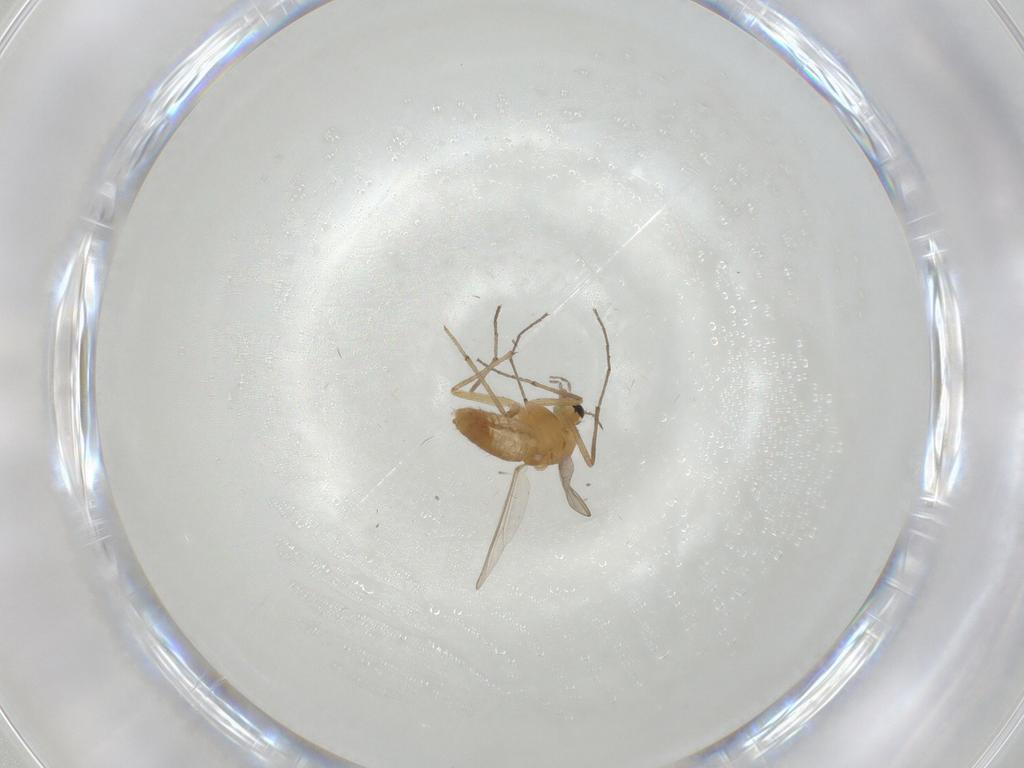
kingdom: Animalia
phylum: Arthropoda
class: Insecta
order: Diptera
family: Chironomidae
